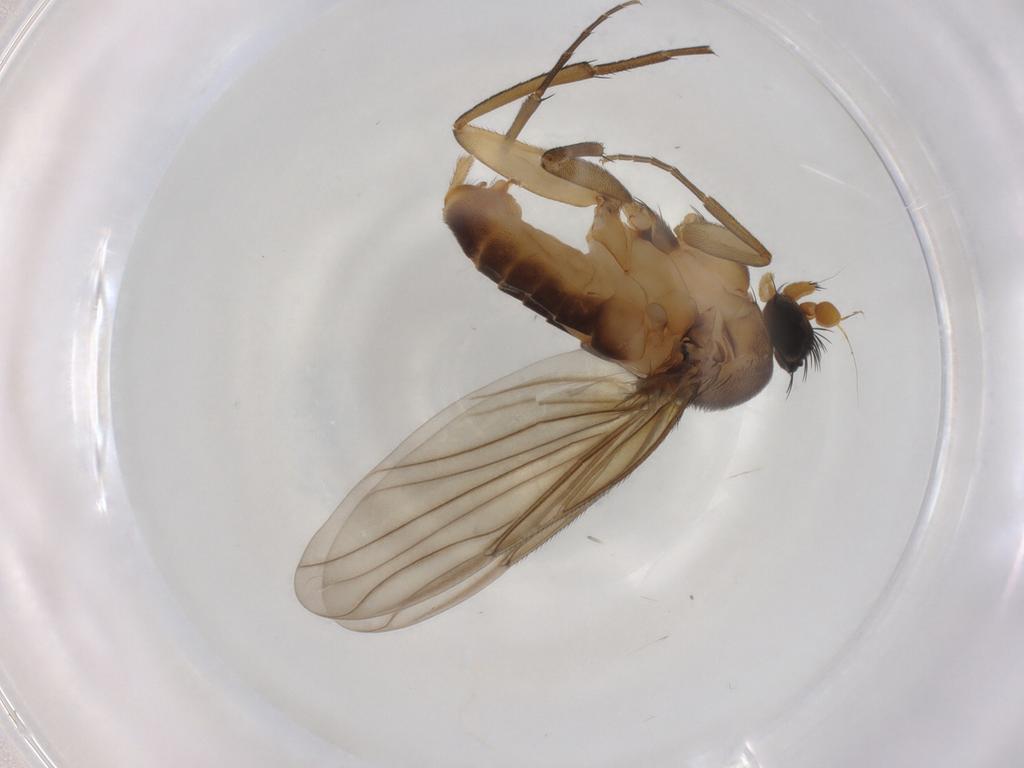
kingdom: Animalia
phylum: Arthropoda
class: Insecta
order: Diptera
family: Phoridae
